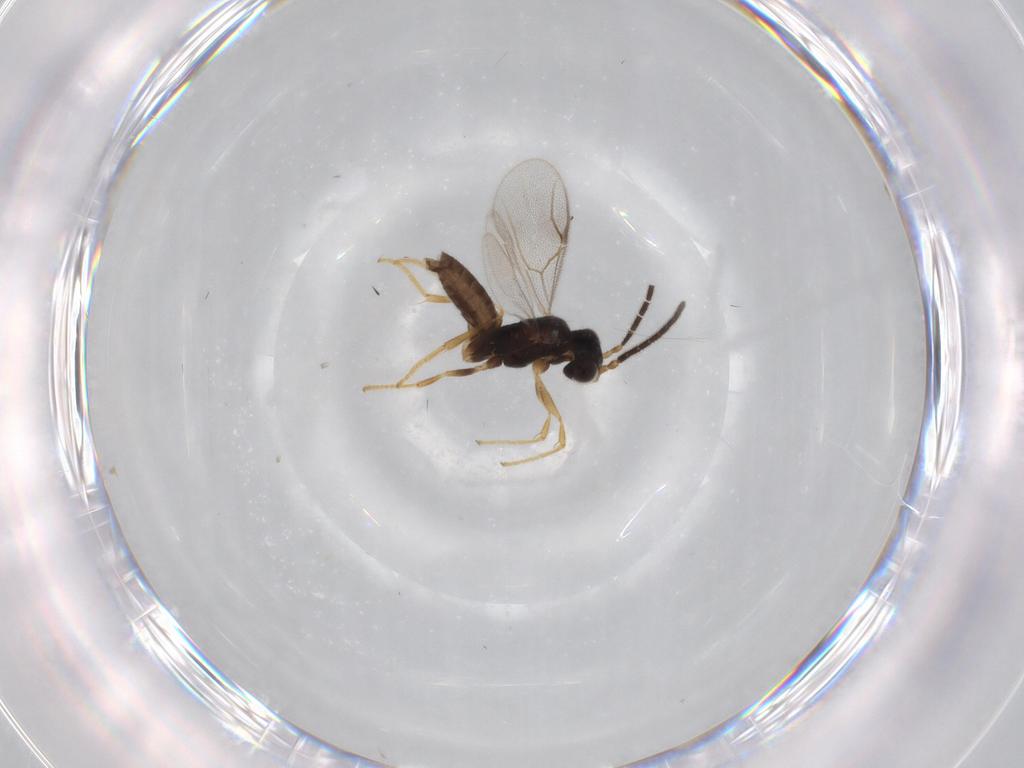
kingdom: Animalia
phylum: Arthropoda
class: Insecta
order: Hymenoptera
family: Dryinidae
